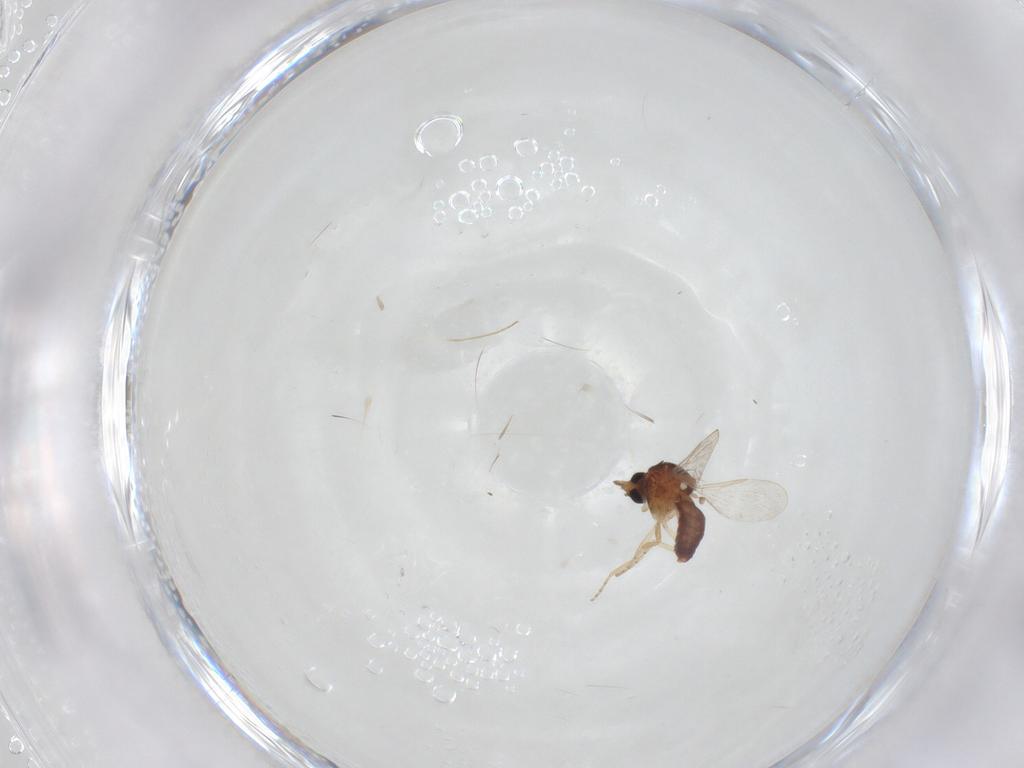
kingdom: Animalia
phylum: Arthropoda
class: Insecta
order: Diptera
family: Ceratopogonidae
